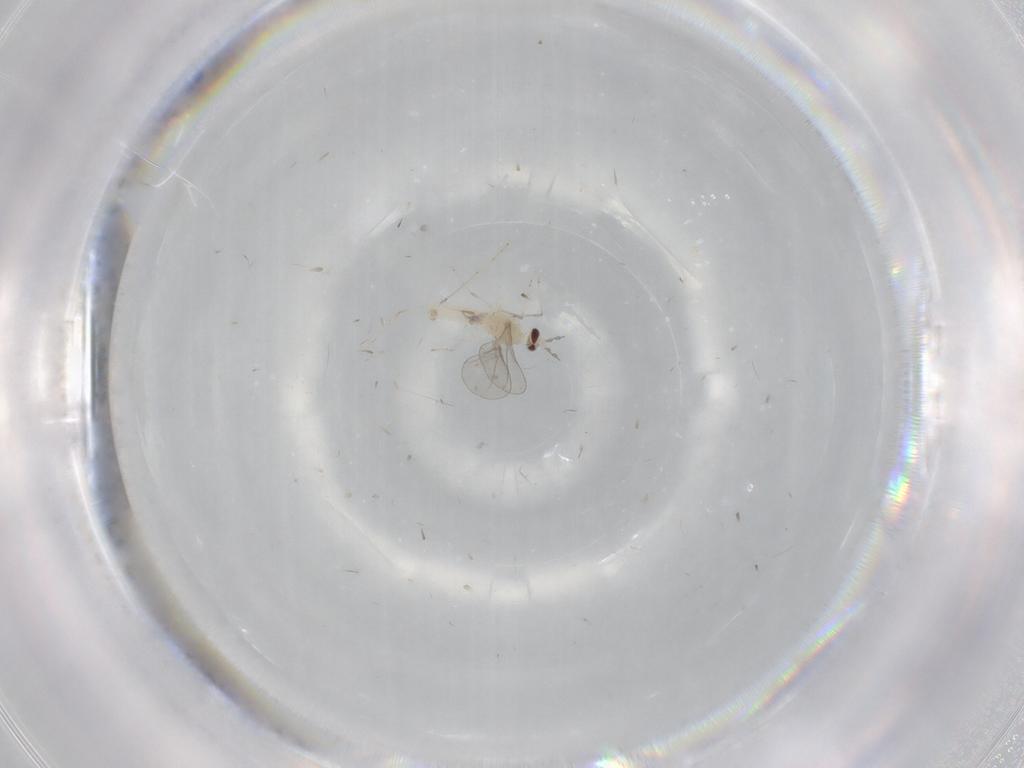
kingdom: Animalia
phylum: Arthropoda
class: Insecta
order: Diptera
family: Cecidomyiidae
